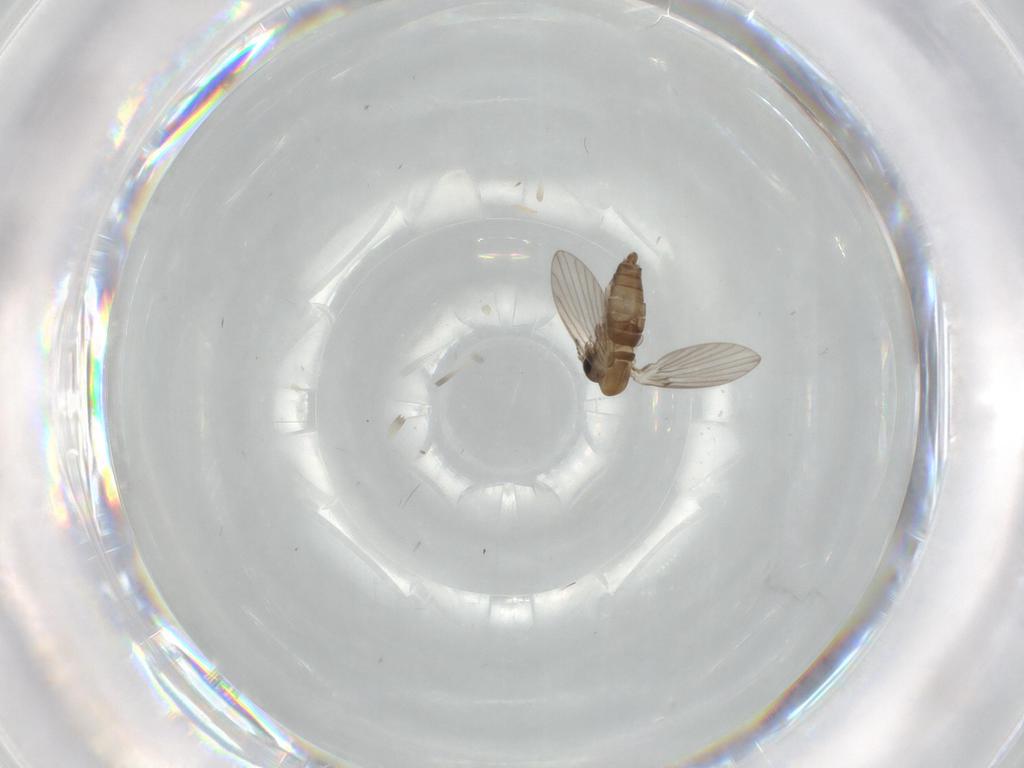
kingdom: Animalia
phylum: Arthropoda
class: Insecta
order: Diptera
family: Psychodidae
